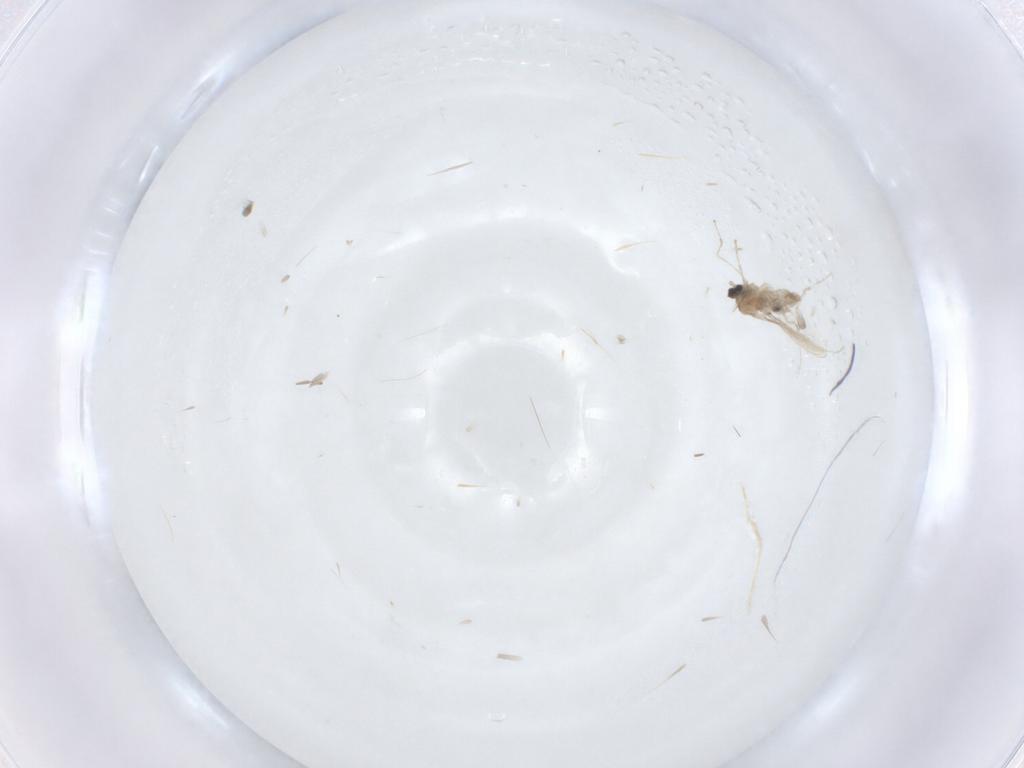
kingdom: Animalia
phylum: Arthropoda
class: Insecta
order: Diptera
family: Cecidomyiidae
